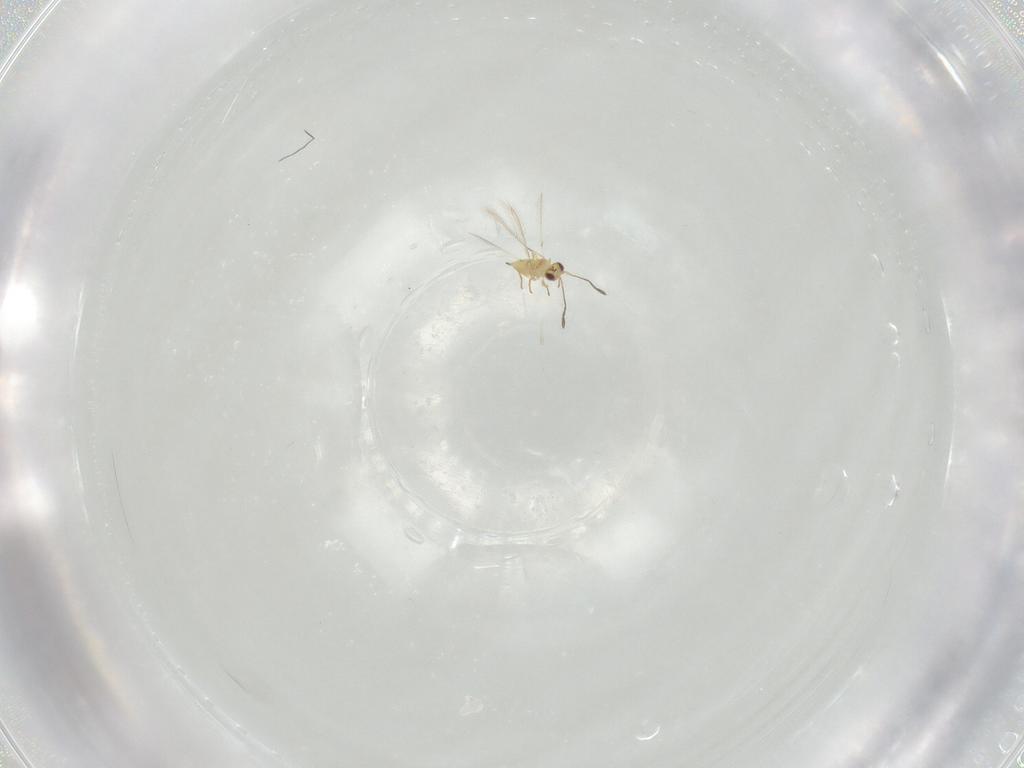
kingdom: Animalia
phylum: Arthropoda
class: Insecta
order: Hymenoptera
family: Mymaridae
